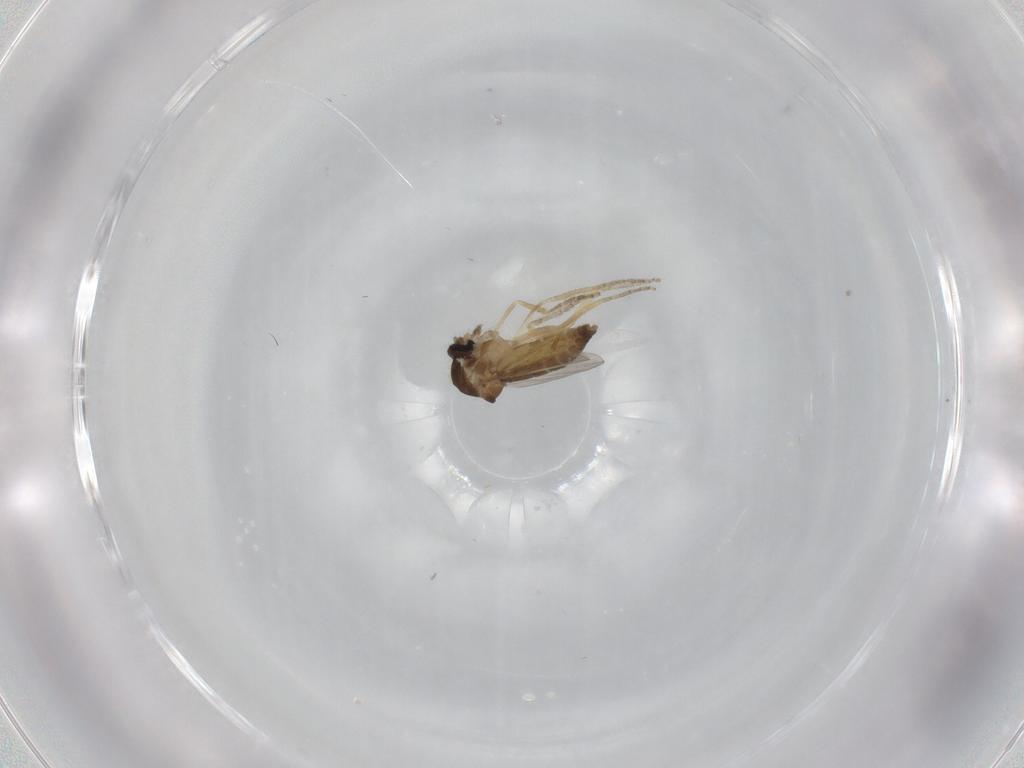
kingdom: Animalia
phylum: Arthropoda
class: Insecta
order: Diptera
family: Ceratopogonidae
